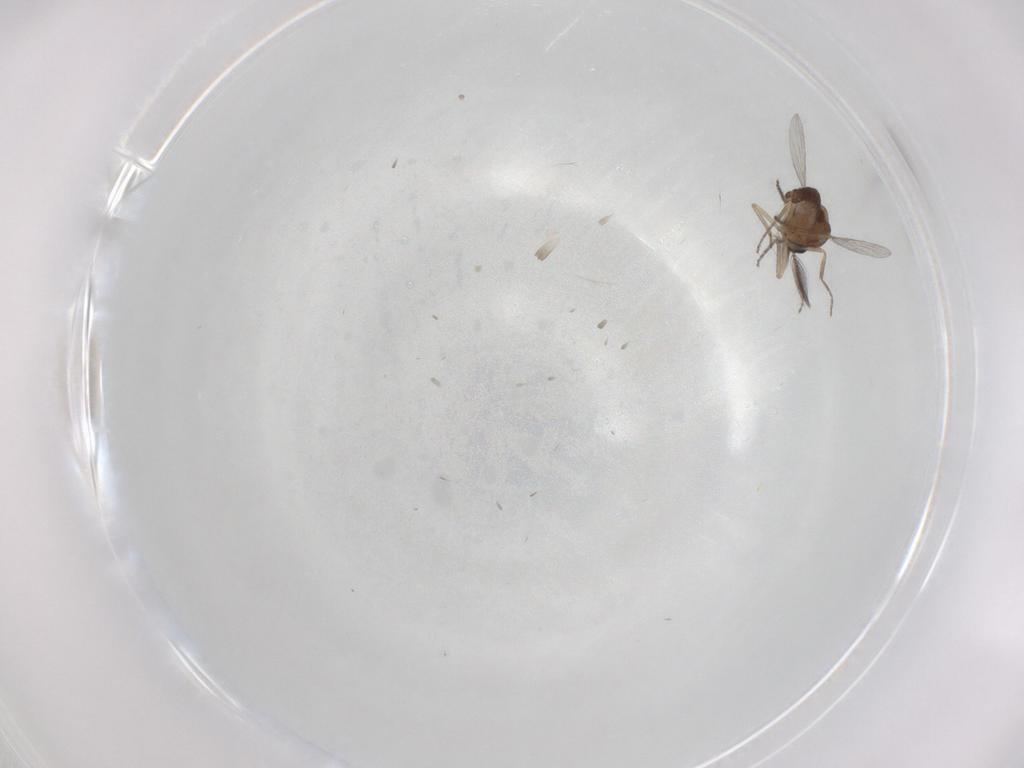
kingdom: Animalia
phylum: Arthropoda
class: Insecta
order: Diptera
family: Ceratopogonidae
